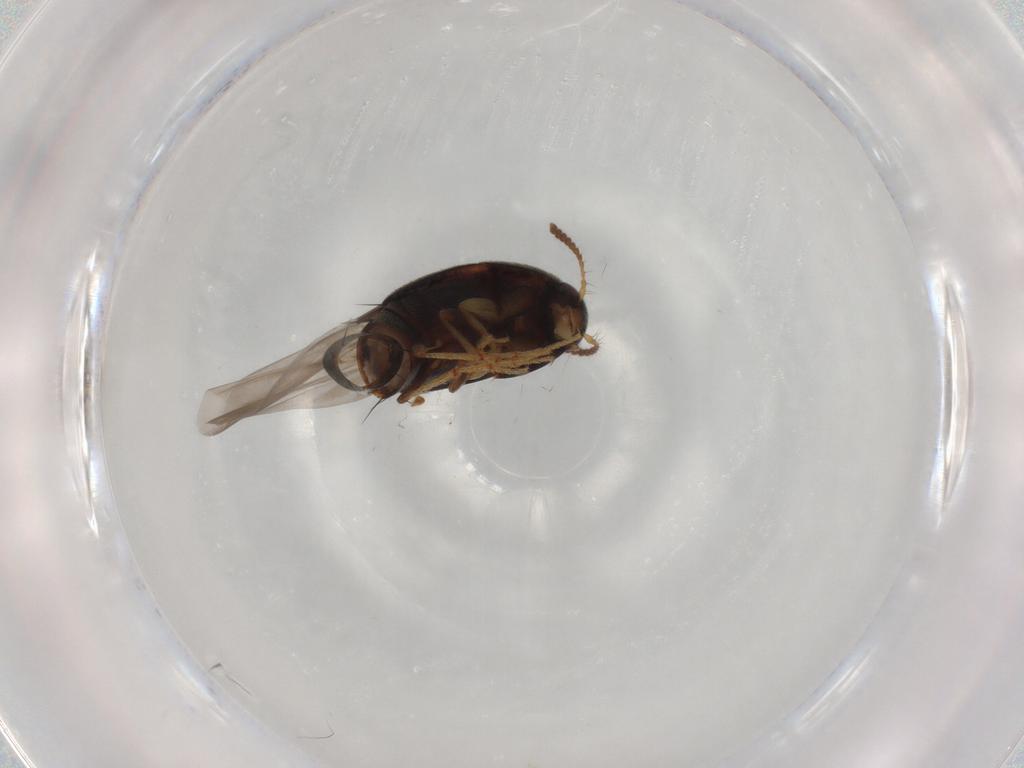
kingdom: Animalia
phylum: Arthropoda
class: Insecta
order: Coleoptera
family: Staphylinidae
